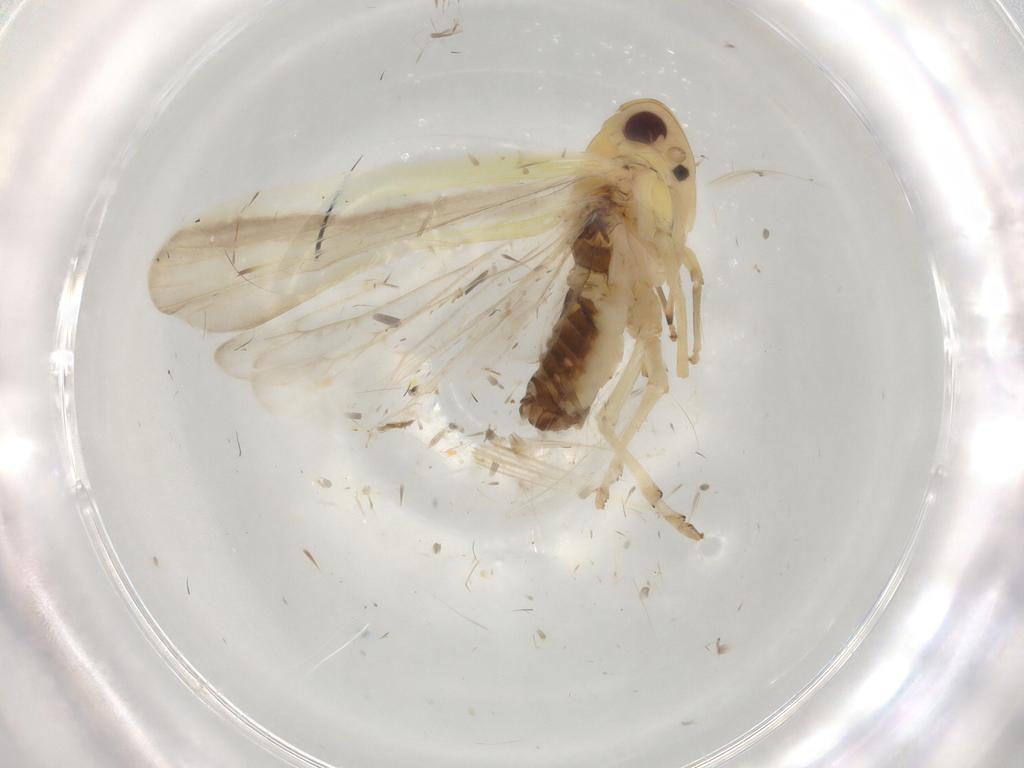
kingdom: Animalia
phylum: Arthropoda
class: Insecta
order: Hemiptera
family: Achilidae
